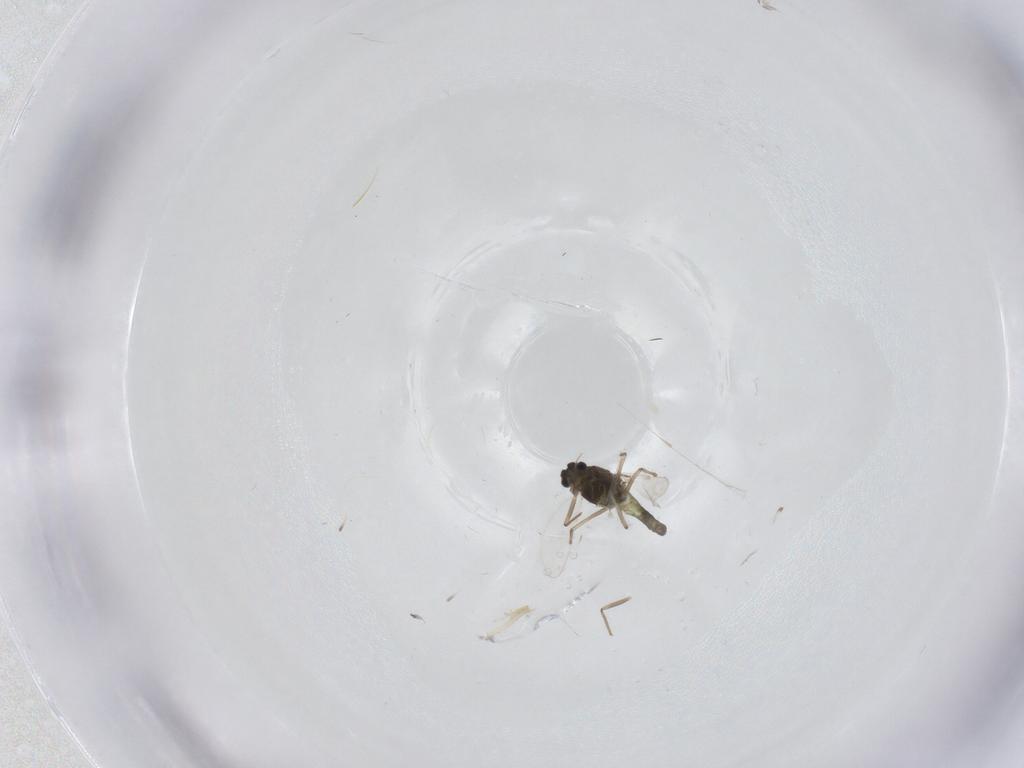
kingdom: Animalia
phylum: Arthropoda
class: Insecta
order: Diptera
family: Chironomidae
